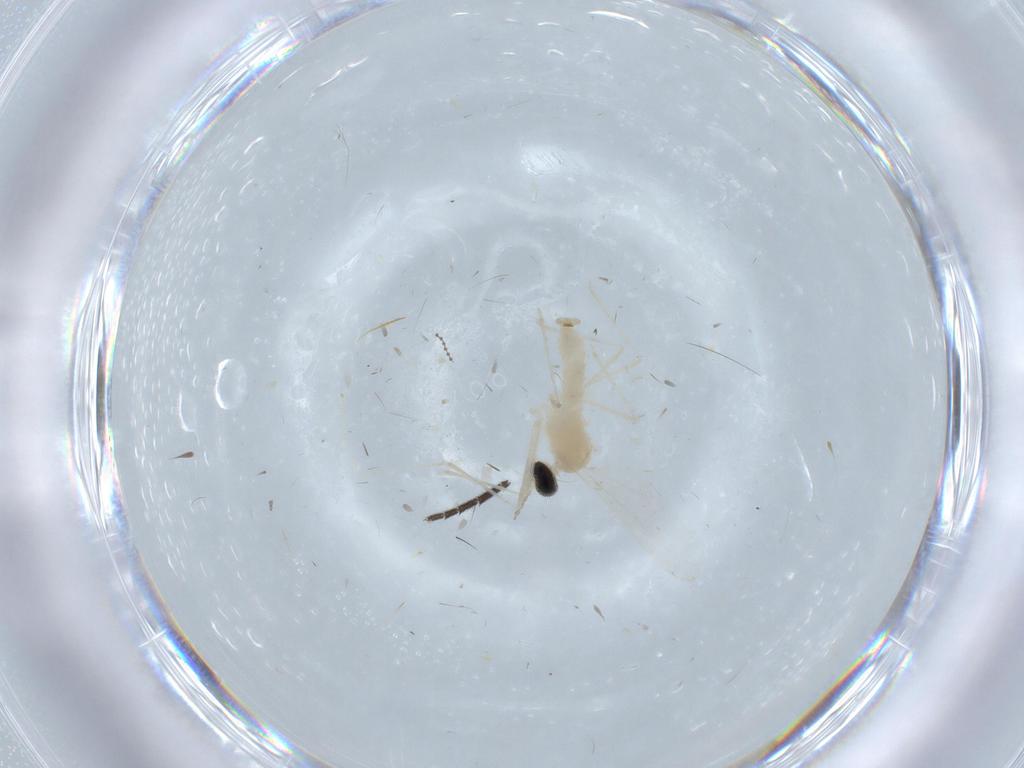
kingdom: Animalia
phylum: Arthropoda
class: Insecta
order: Diptera
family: Cecidomyiidae
